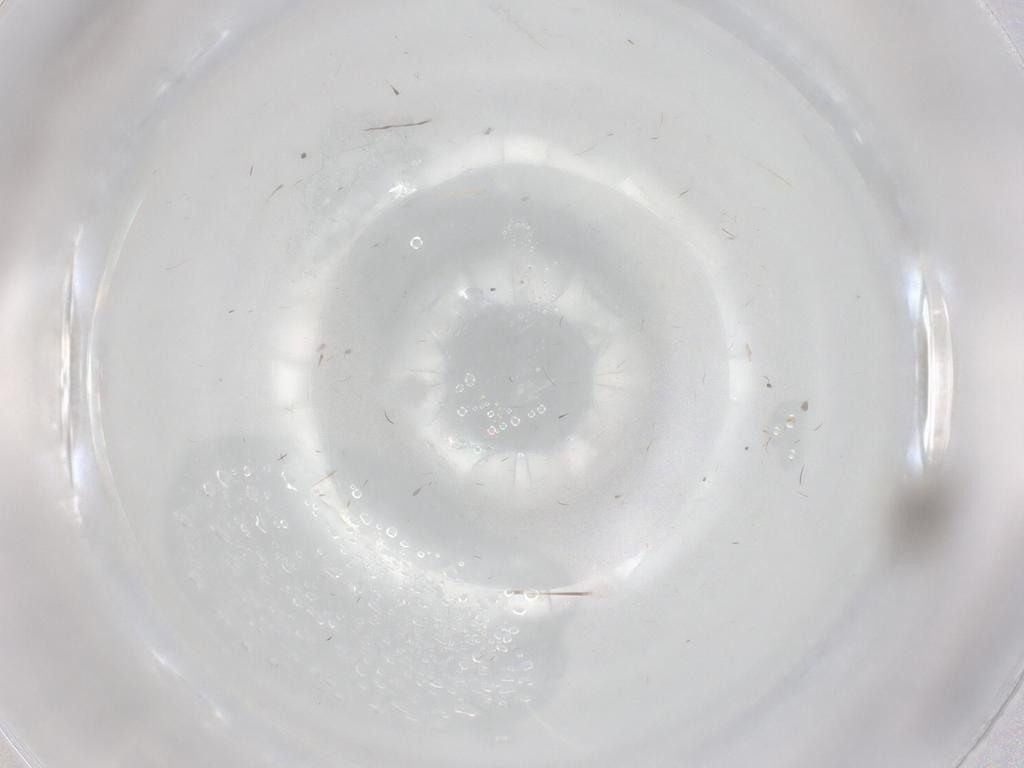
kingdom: Animalia
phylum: Arthropoda
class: Insecta
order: Diptera
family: Cecidomyiidae
